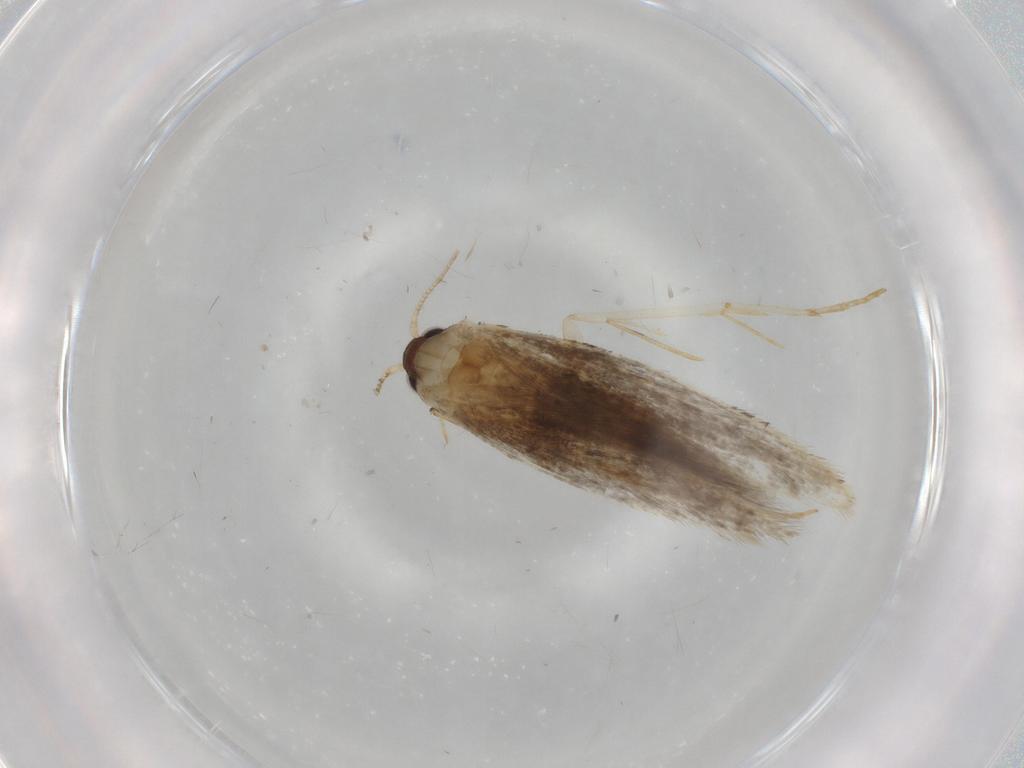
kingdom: Animalia
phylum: Arthropoda
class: Insecta
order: Lepidoptera
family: Tineidae
